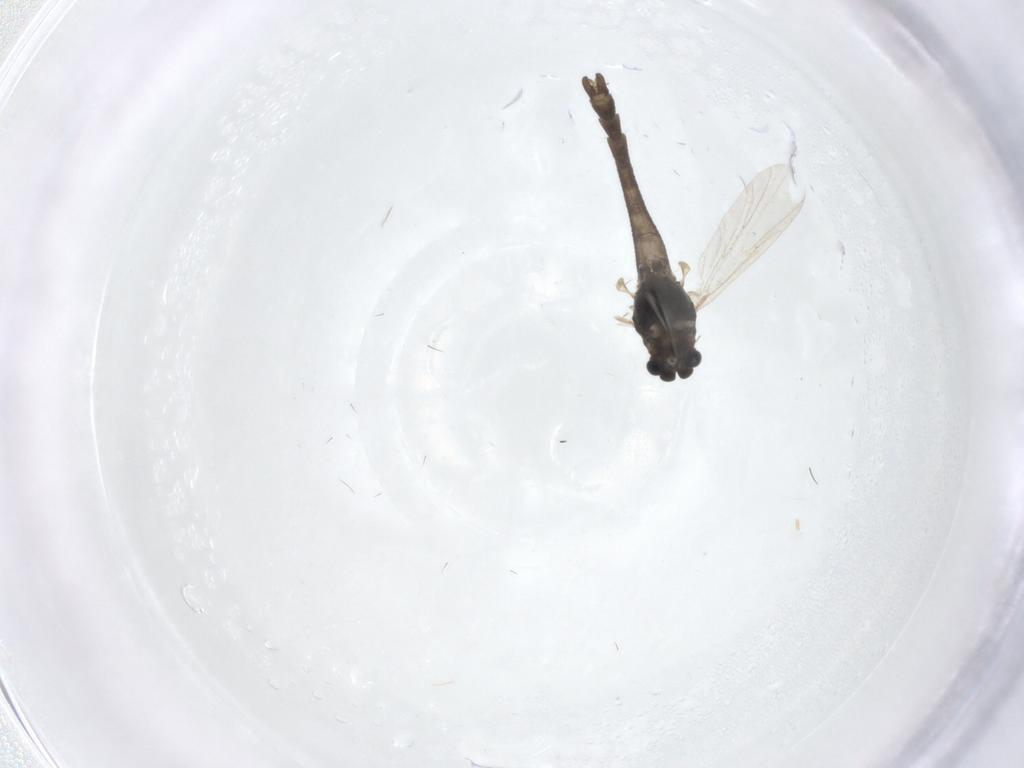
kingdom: Animalia
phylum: Arthropoda
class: Insecta
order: Diptera
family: Chironomidae
